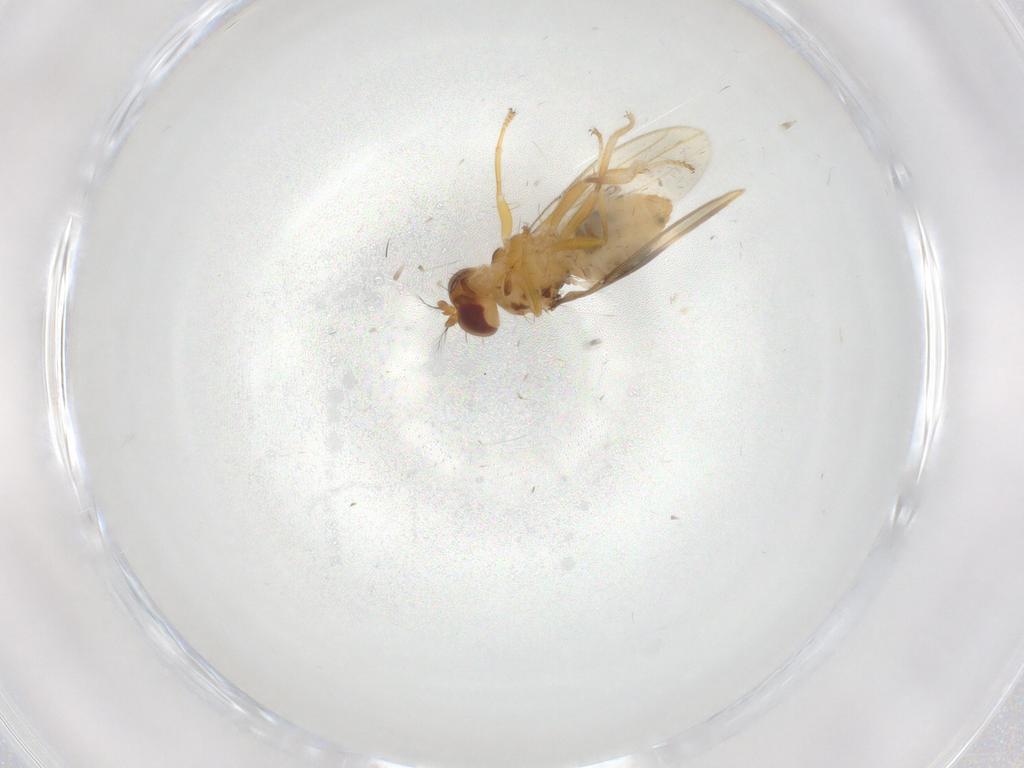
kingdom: Animalia
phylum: Arthropoda
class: Insecta
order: Diptera
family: Periscelididae
